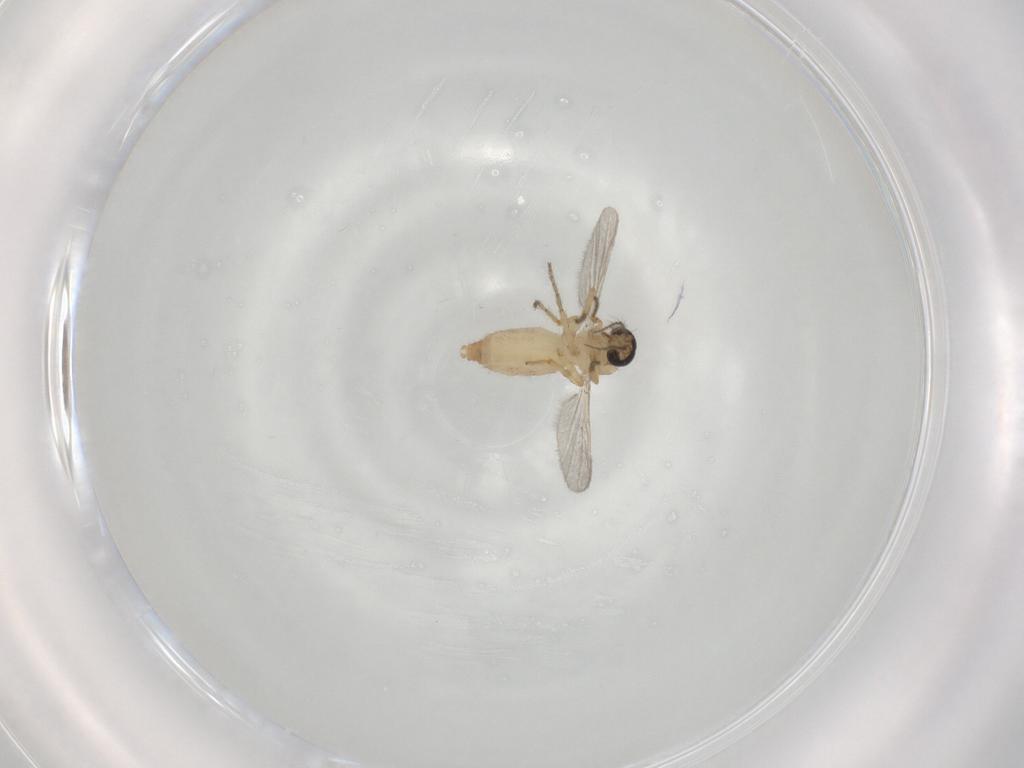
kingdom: Animalia
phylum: Arthropoda
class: Insecta
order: Diptera
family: Ceratopogonidae
